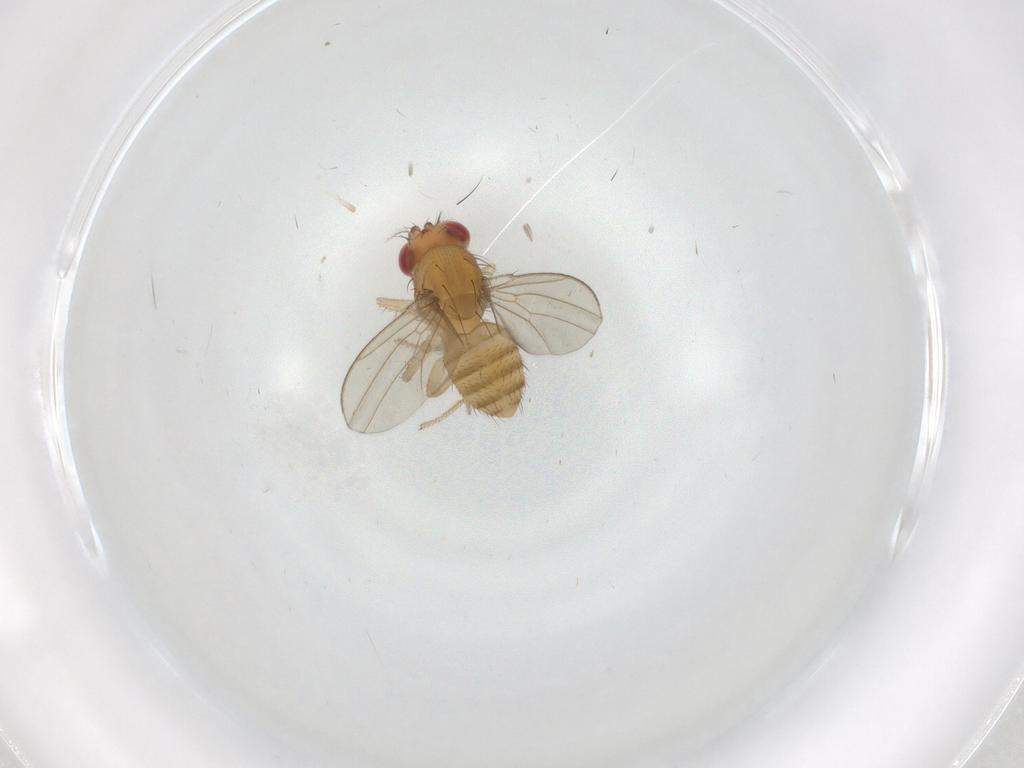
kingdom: Animalia
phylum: Arthropoda
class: Insecta
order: Diptera
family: Drosophilidae
